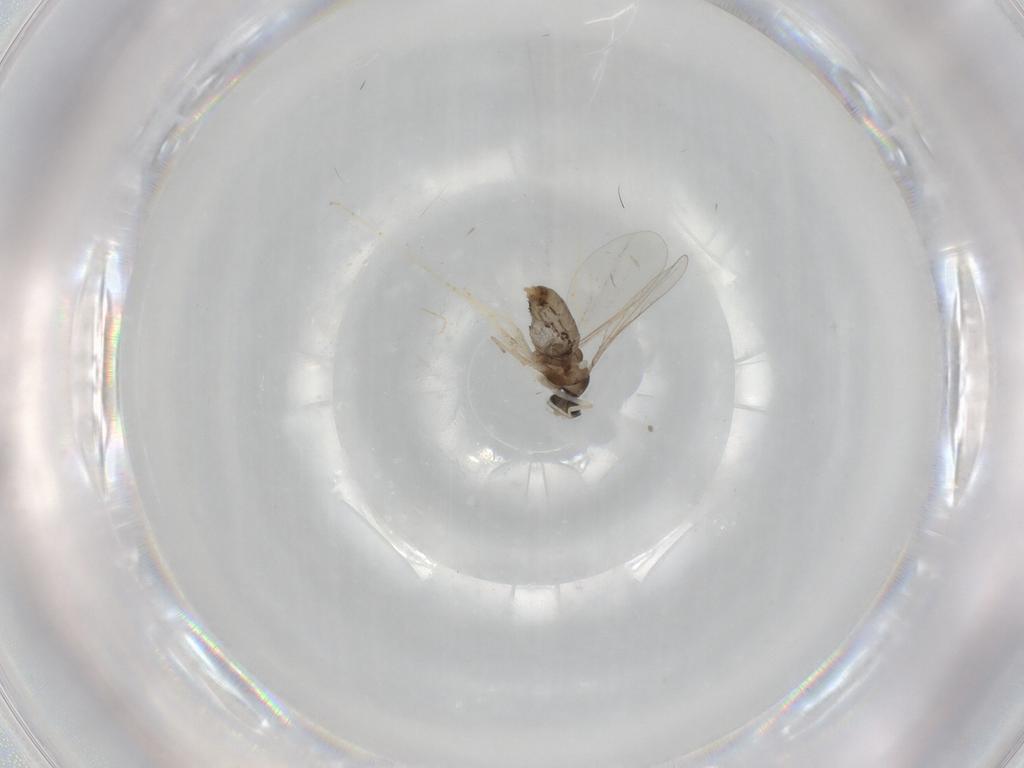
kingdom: Animalia
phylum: Arthropoda
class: Insecta
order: Diptera
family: Cecidomyiidae
